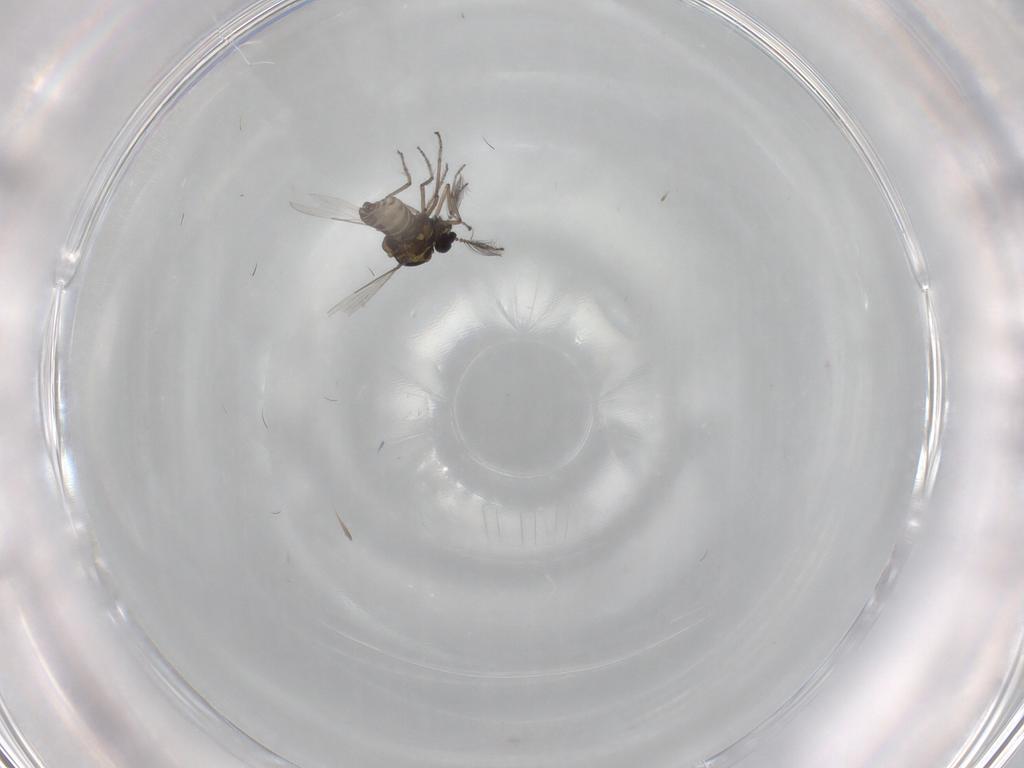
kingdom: Animalia
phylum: Arthropoda
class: Insecta
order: Diptera
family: Ceratopogonidae
